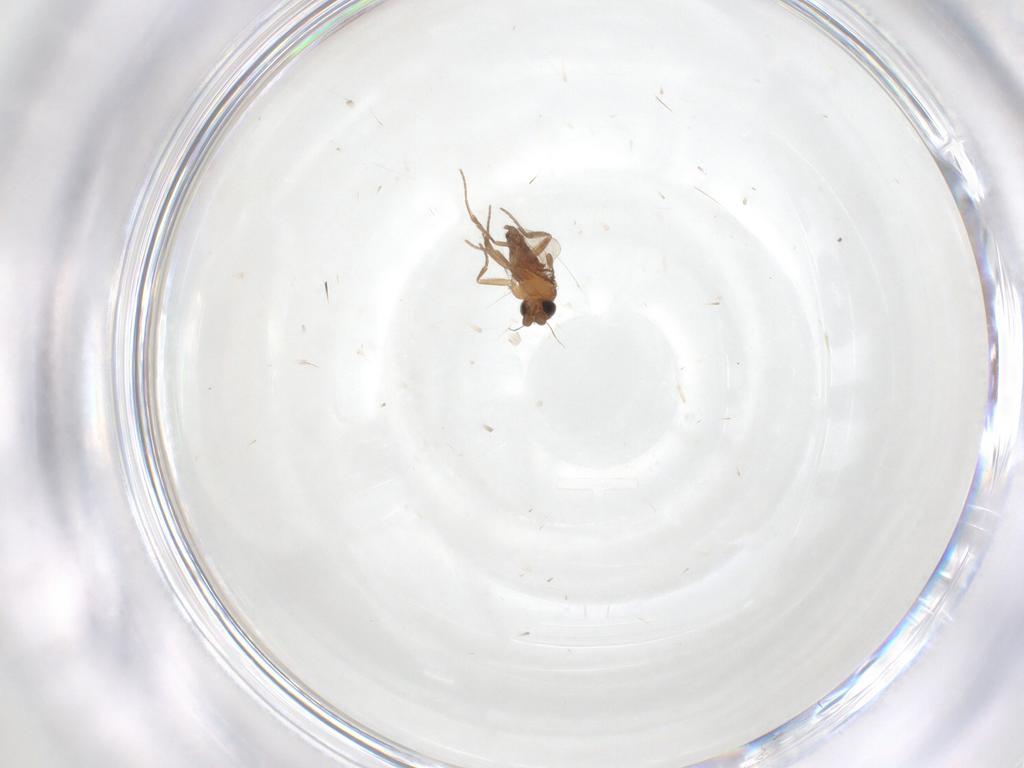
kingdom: Animalia
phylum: Arthropoda
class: Insecta
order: Diptera
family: Phoridae
